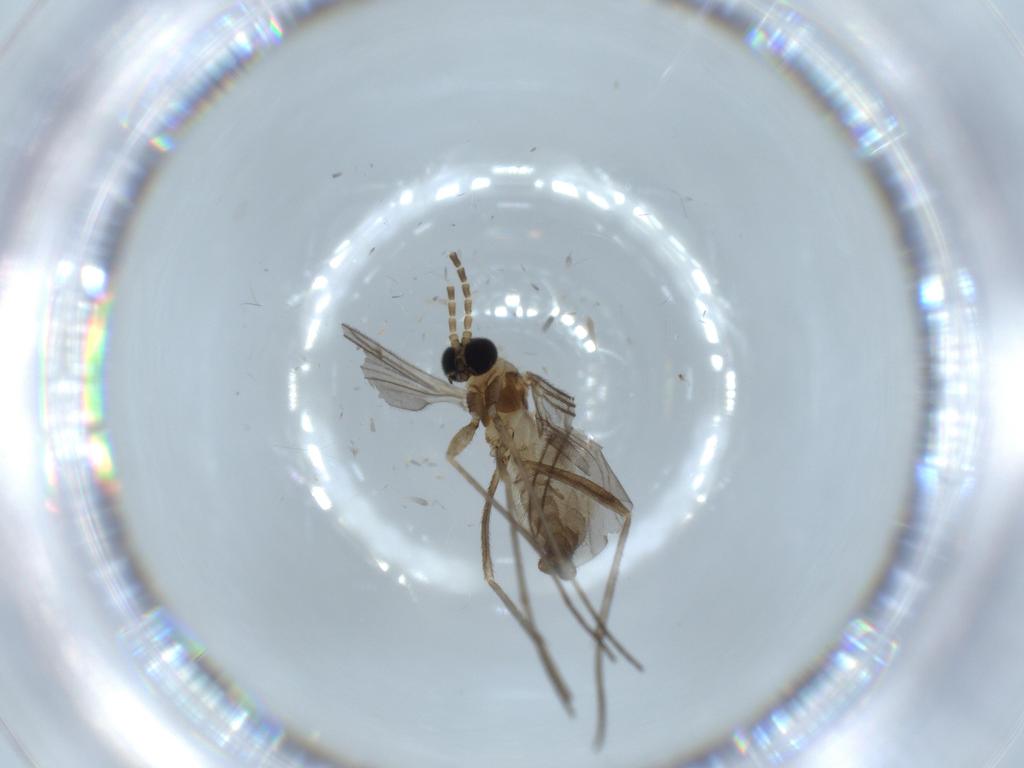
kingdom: Animalia
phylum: Arthropoda
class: Insecta
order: Diptera
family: Sciaridae
